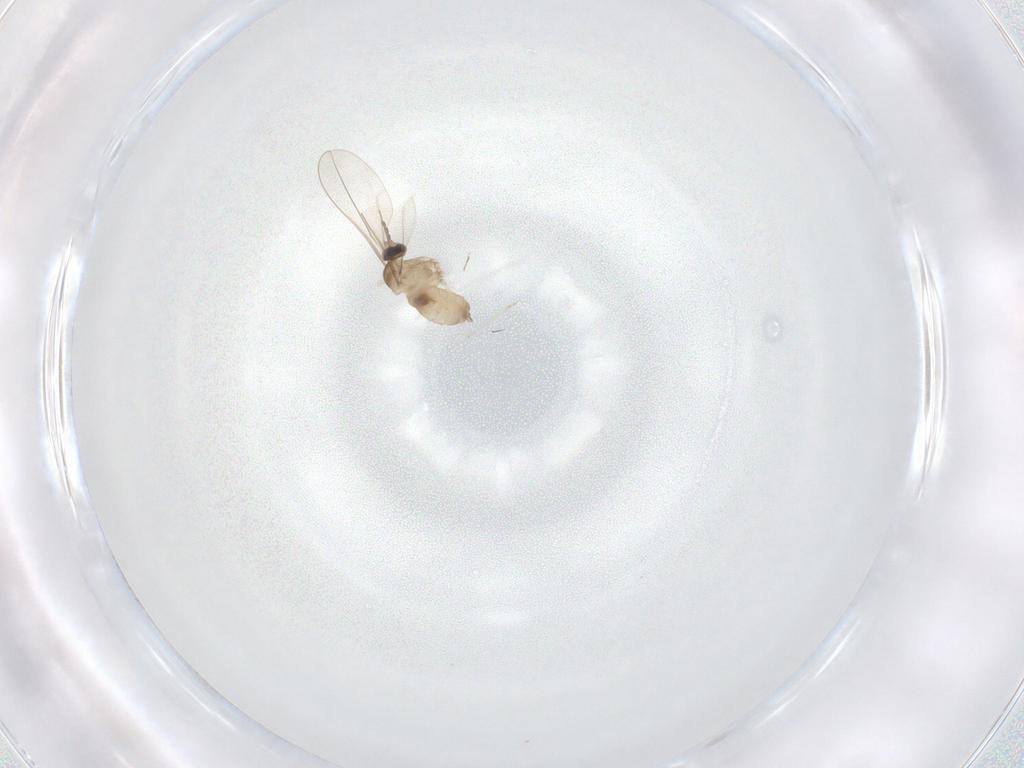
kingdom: Animalia
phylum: Arthropoda
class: Insecta
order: Diptera
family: Cecidomyiidae
